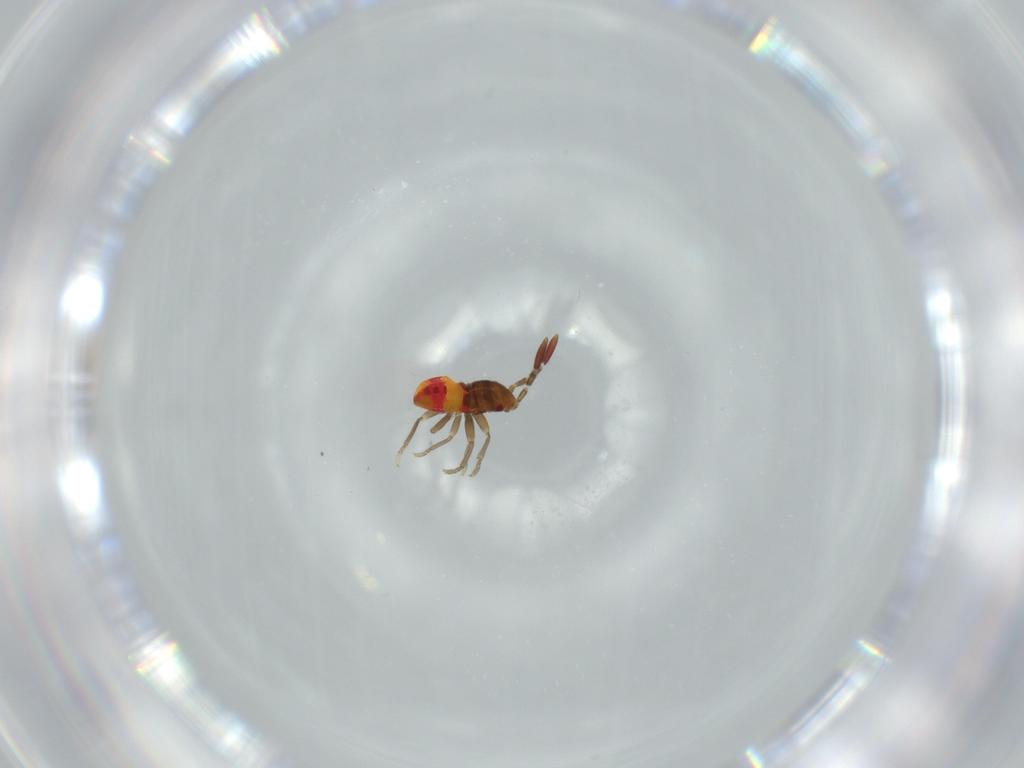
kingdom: Animalia
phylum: Arthropoda
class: Insecta
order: Hemiptera
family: Rhyparochromidae
